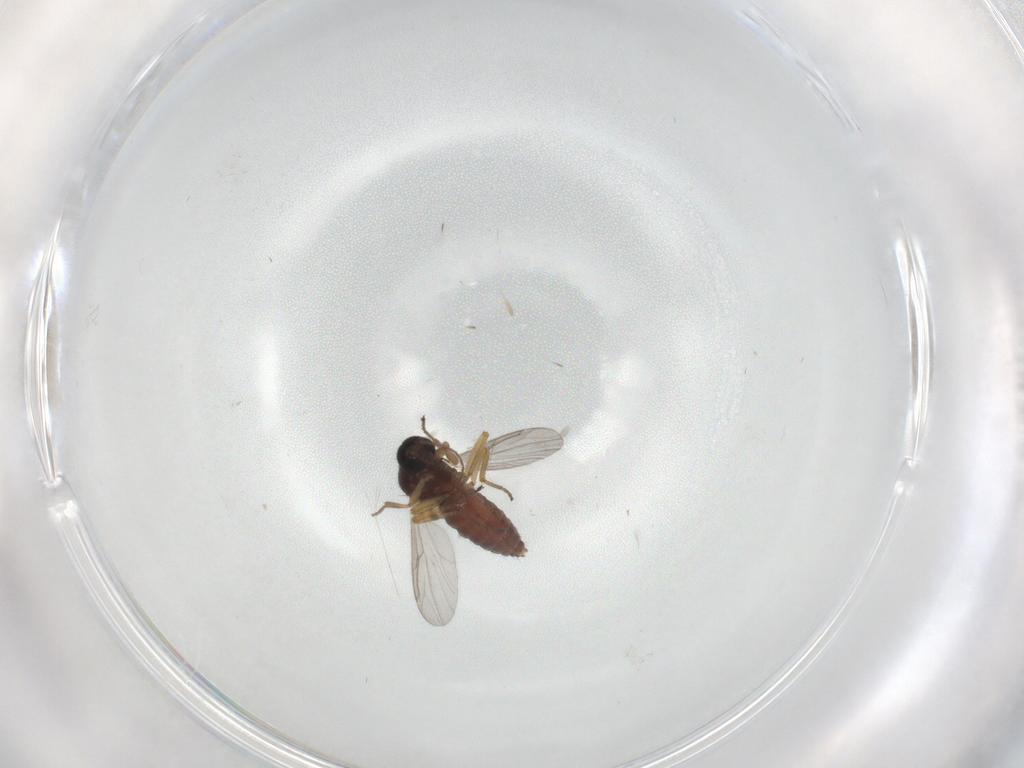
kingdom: Animalia
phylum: Arthropoda
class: Insecta
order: Diptera
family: Ceratopogonidae
